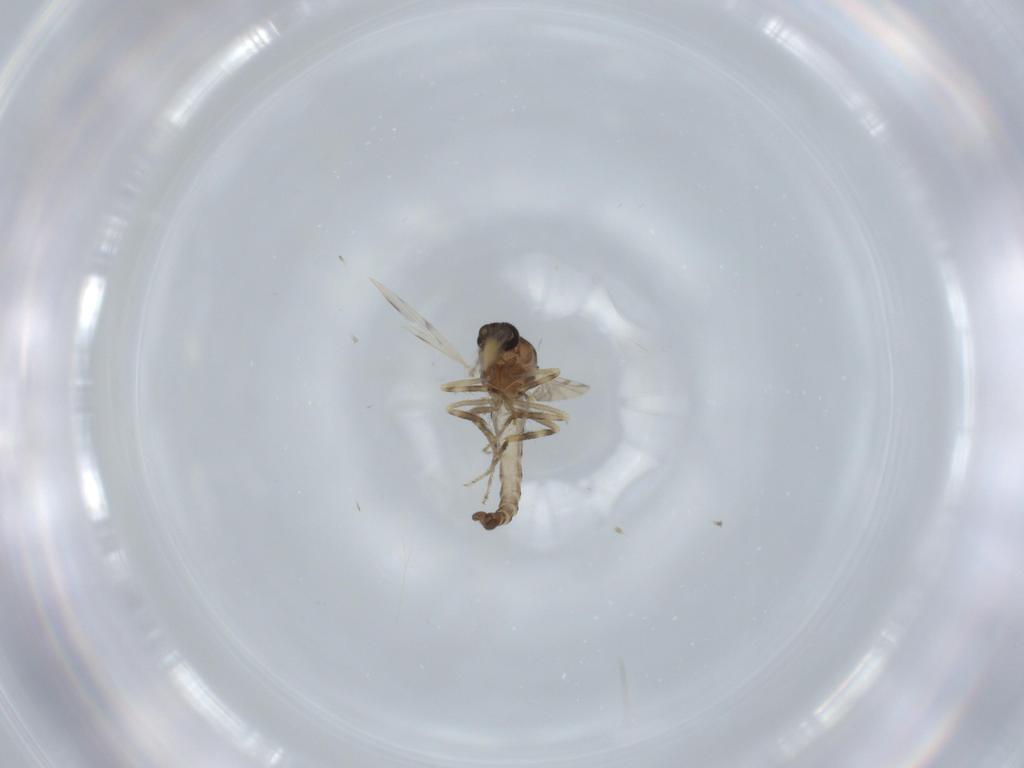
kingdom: Animalia
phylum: Arthropoda
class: Insecta
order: Diptera
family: Ceratopogonidae
